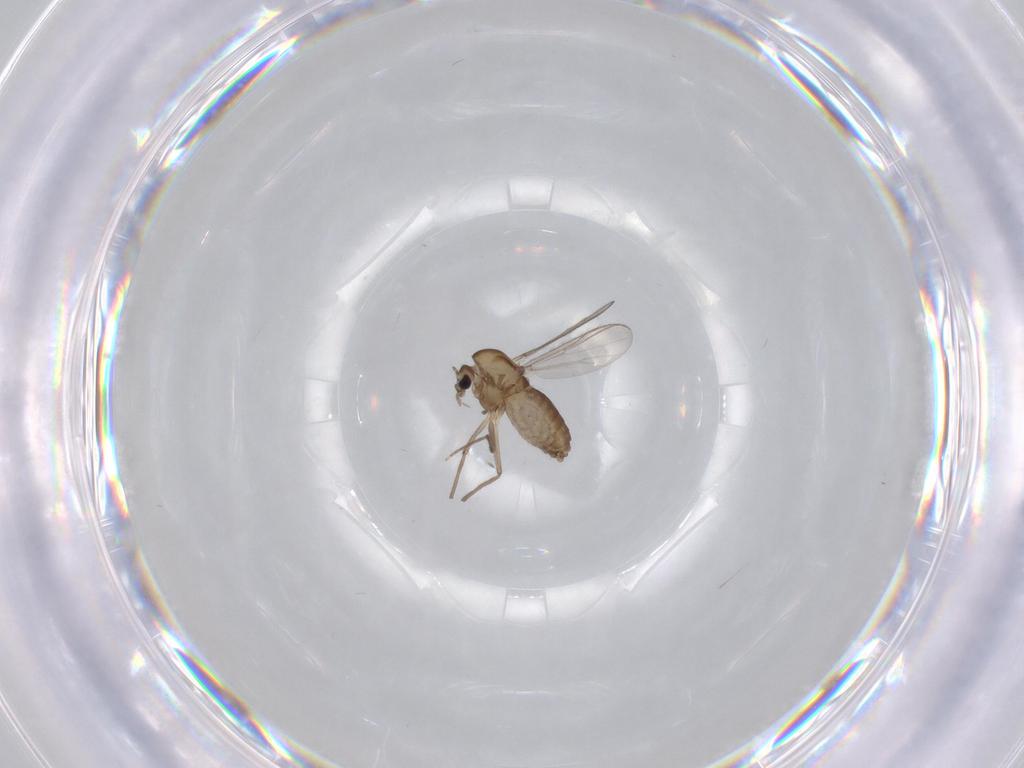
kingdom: Animalia
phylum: Arthropoda
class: Insecta
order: Diptera
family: Chironomidae
